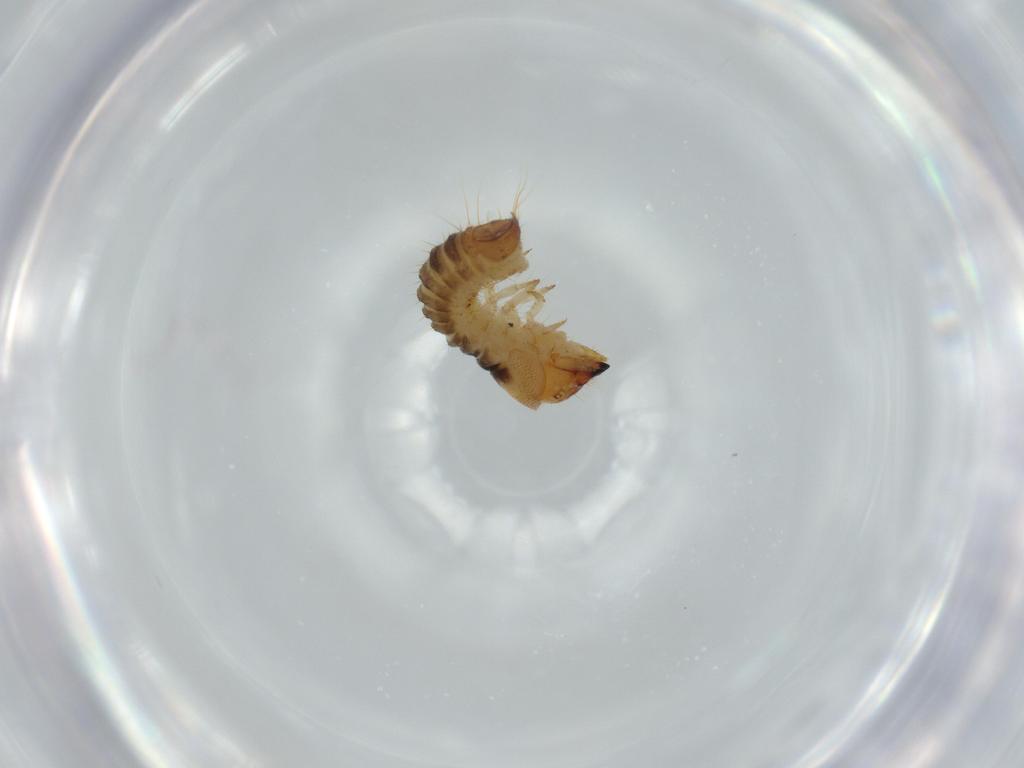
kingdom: Animalia
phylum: Arthropoda
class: Insecta
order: Coleoptera
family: Lymexylidae
